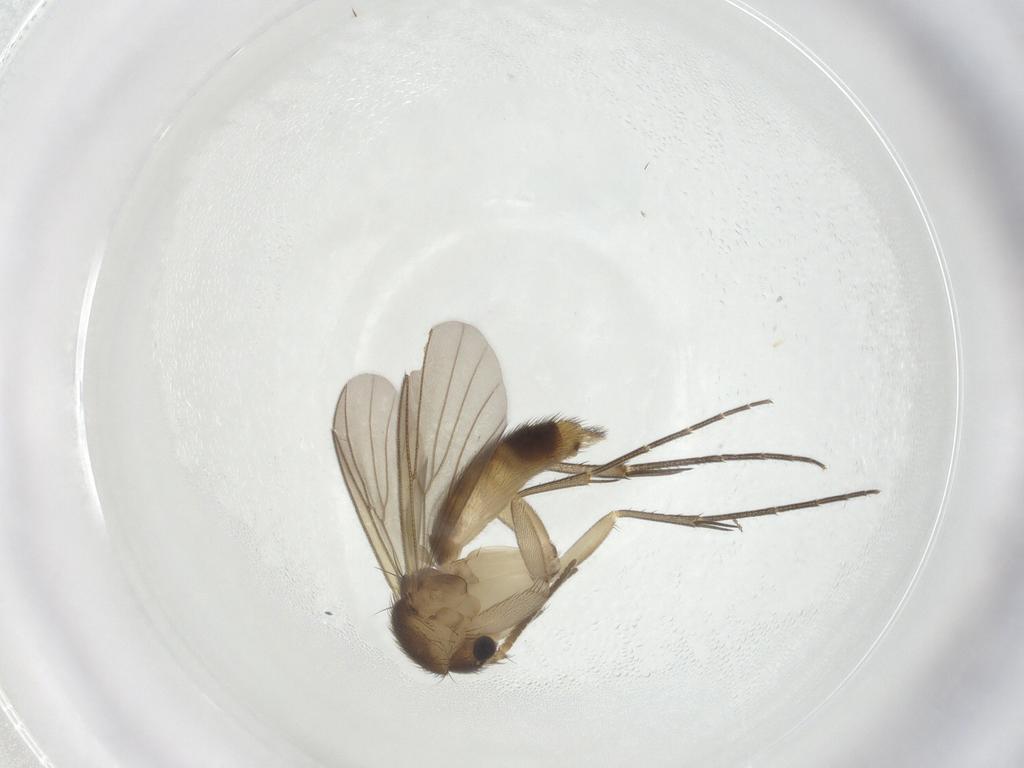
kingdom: Animalia
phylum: Arthropoda
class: Insecta
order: Diptera
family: Mycetophilidae
